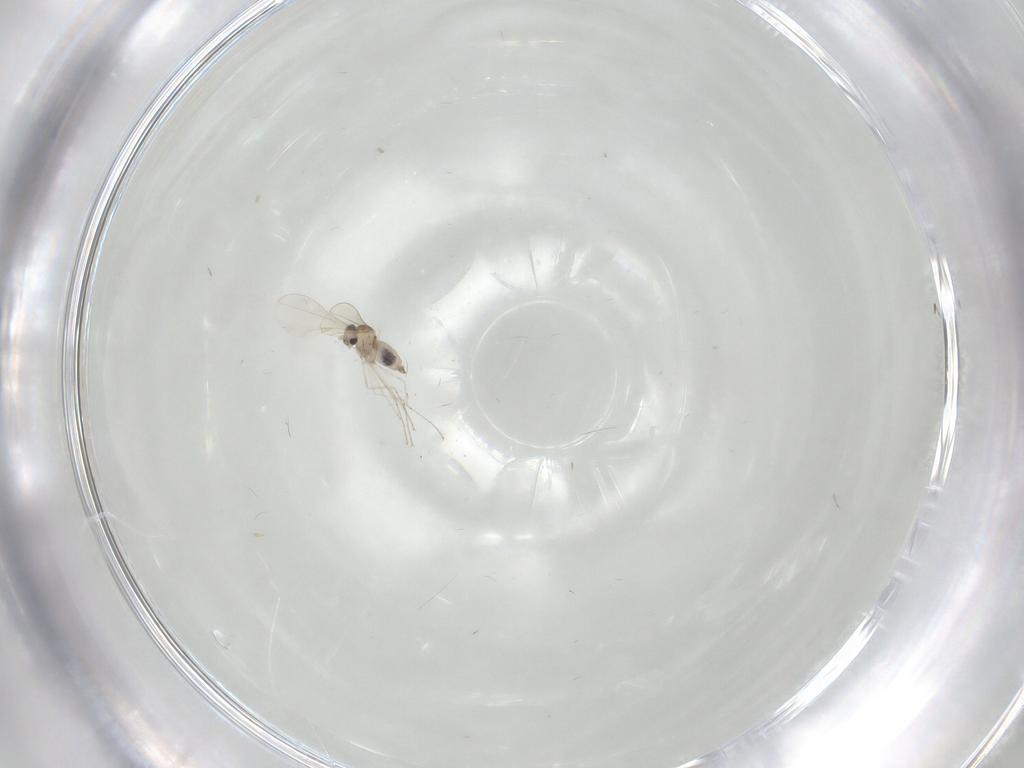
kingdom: Animalia
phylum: Arthropoda
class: Insecta
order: Diptera
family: Cecidomyiidae
